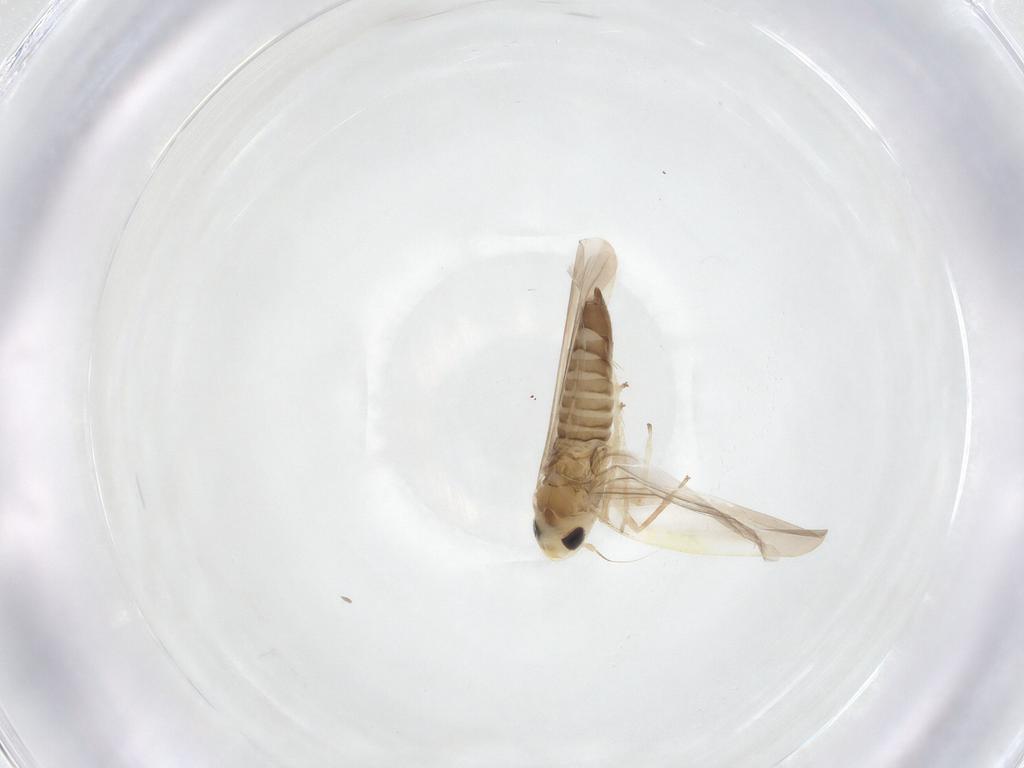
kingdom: Animalia
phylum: Arthropoda
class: Insecta
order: Hemiptera
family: Cicadellidae
